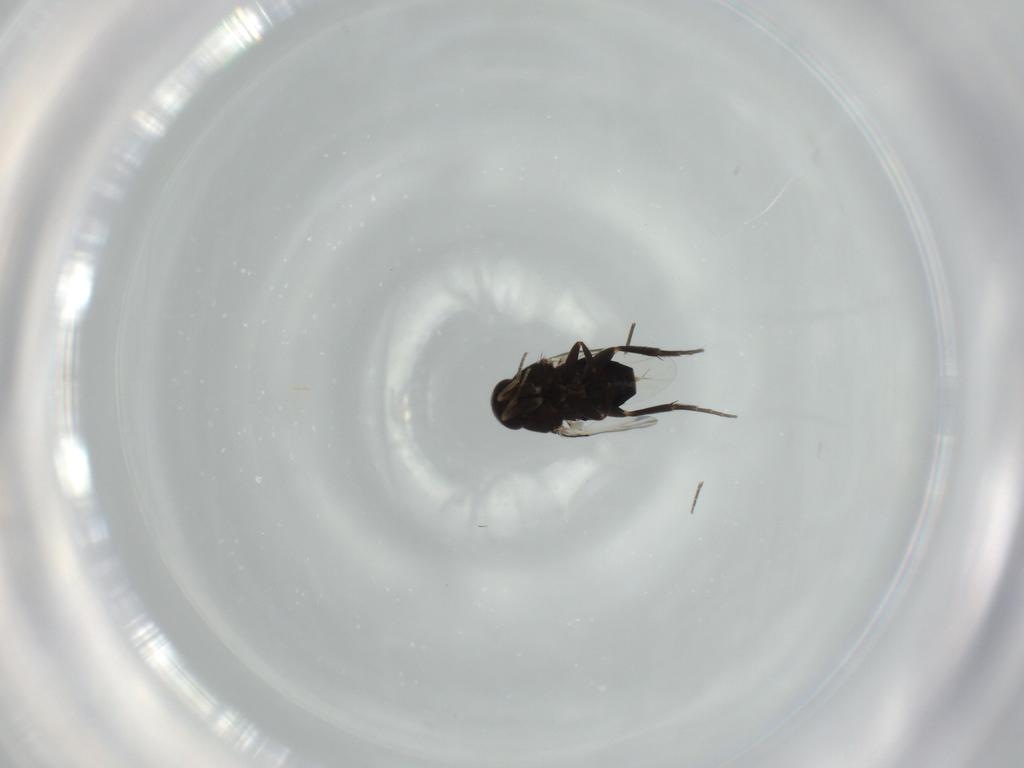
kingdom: Animalia
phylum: Arthropoda
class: Insecta
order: Diptera
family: Phoridae
